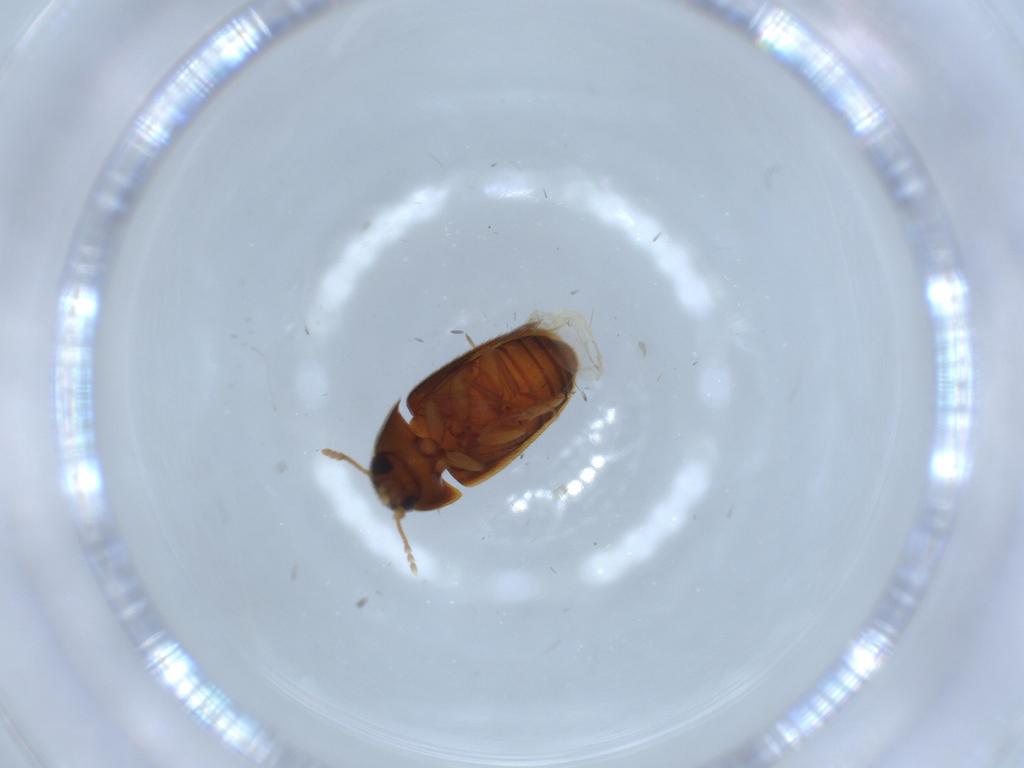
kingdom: Animalia
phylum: Arthropoda
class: Insecta
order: Coleoptera
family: Mycetophagidae
